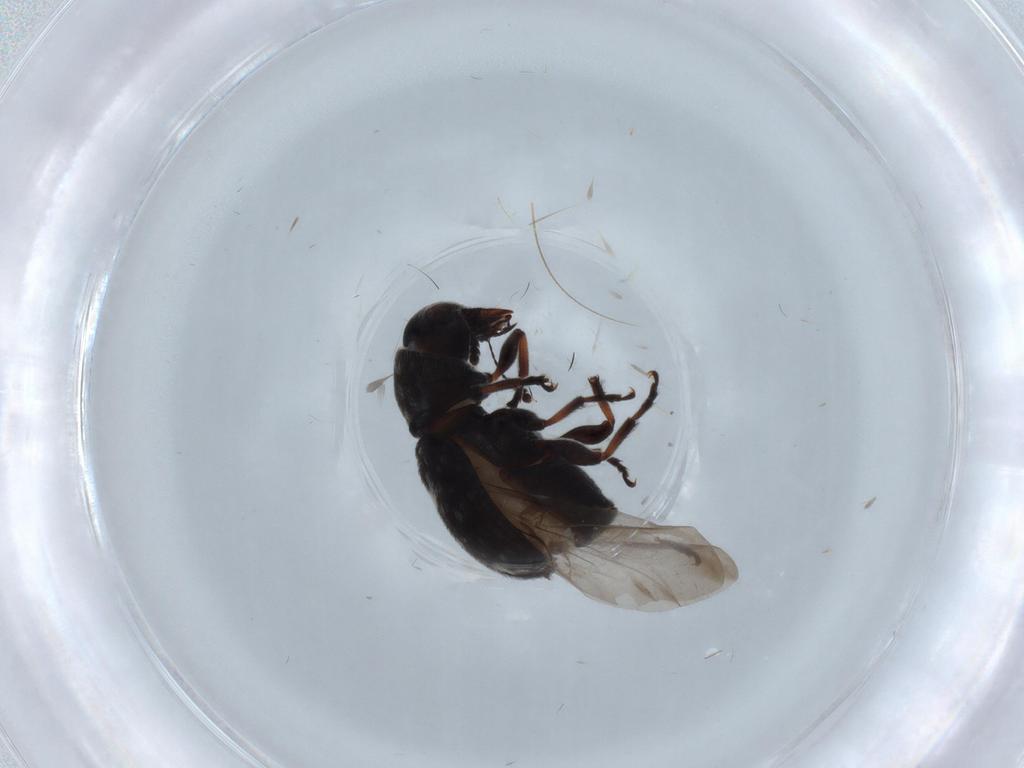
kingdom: Animalia
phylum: Arthropoda
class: Insecta
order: Coleoptera
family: Anthribidae
